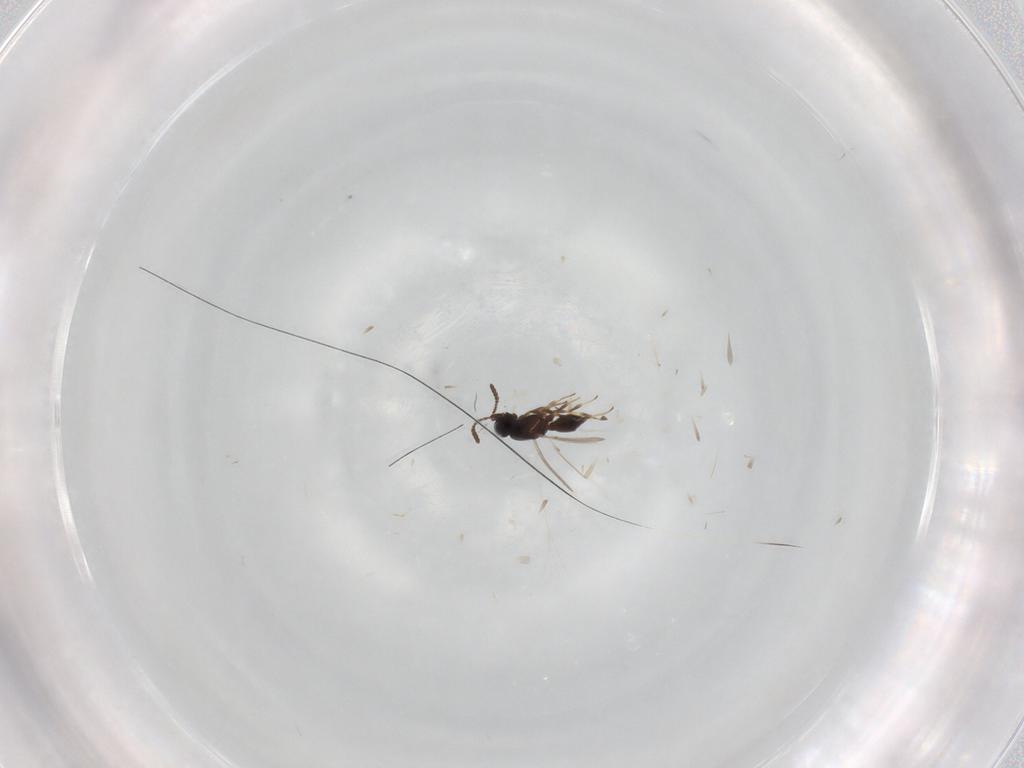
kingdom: Animalia
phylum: Arthropoda
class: Insecta
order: Hymenoptera
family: Scelionidae
